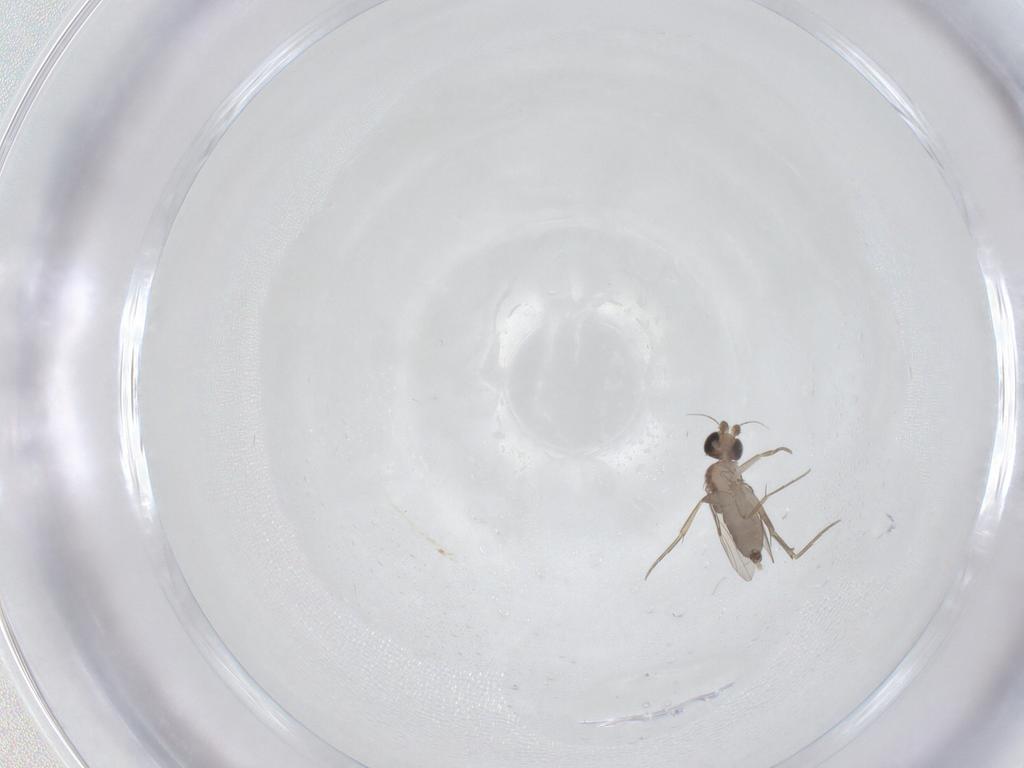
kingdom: Animalia
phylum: Arthropoda
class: Insecta
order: Diptera
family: Phoridae
